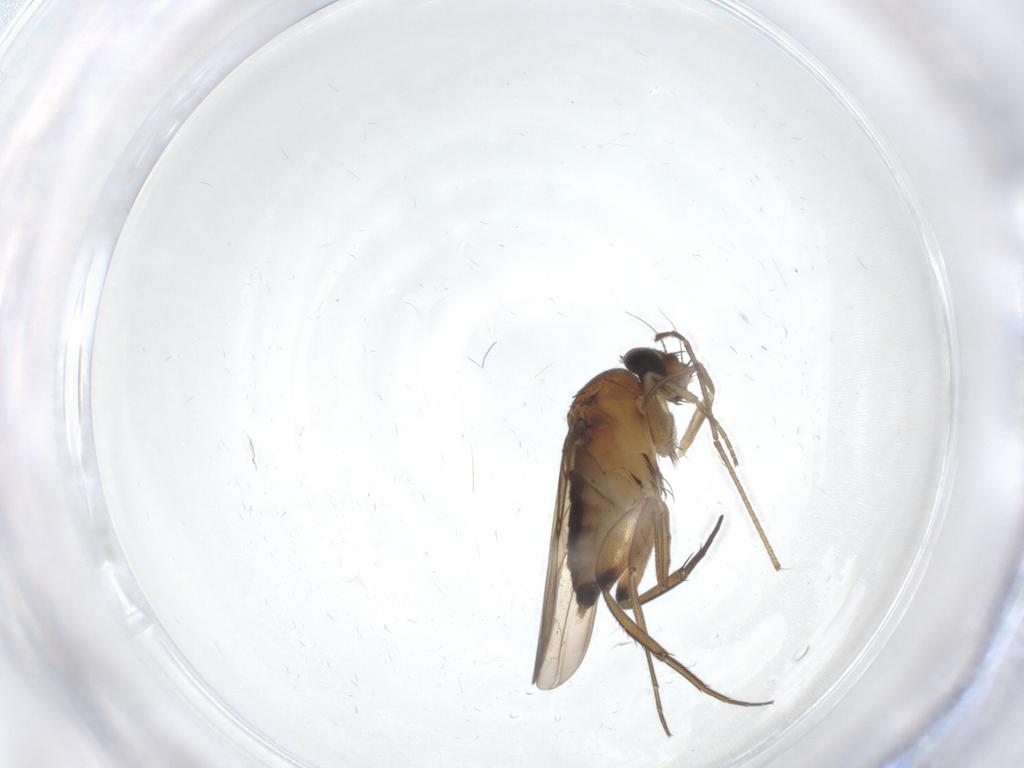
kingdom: Animalia
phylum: Arthropoda
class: Insecta
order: Diptera
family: Phoridae
